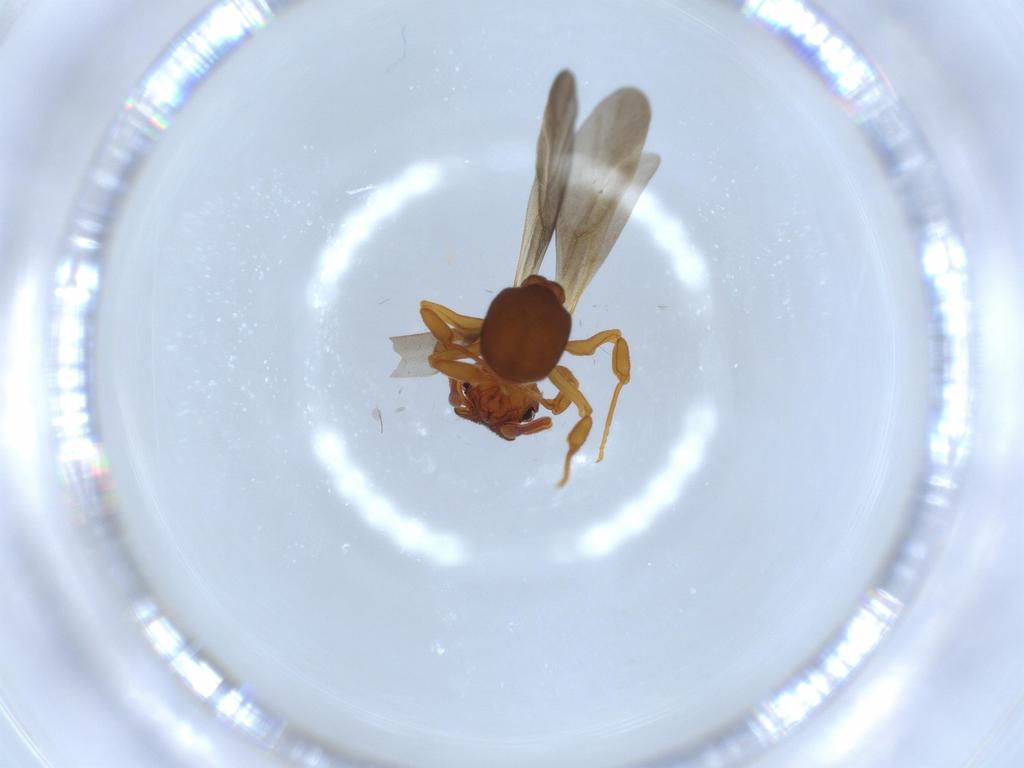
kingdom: Animalia
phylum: Arthropoda
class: Insecta
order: Hymenoptera
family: Formicidae
